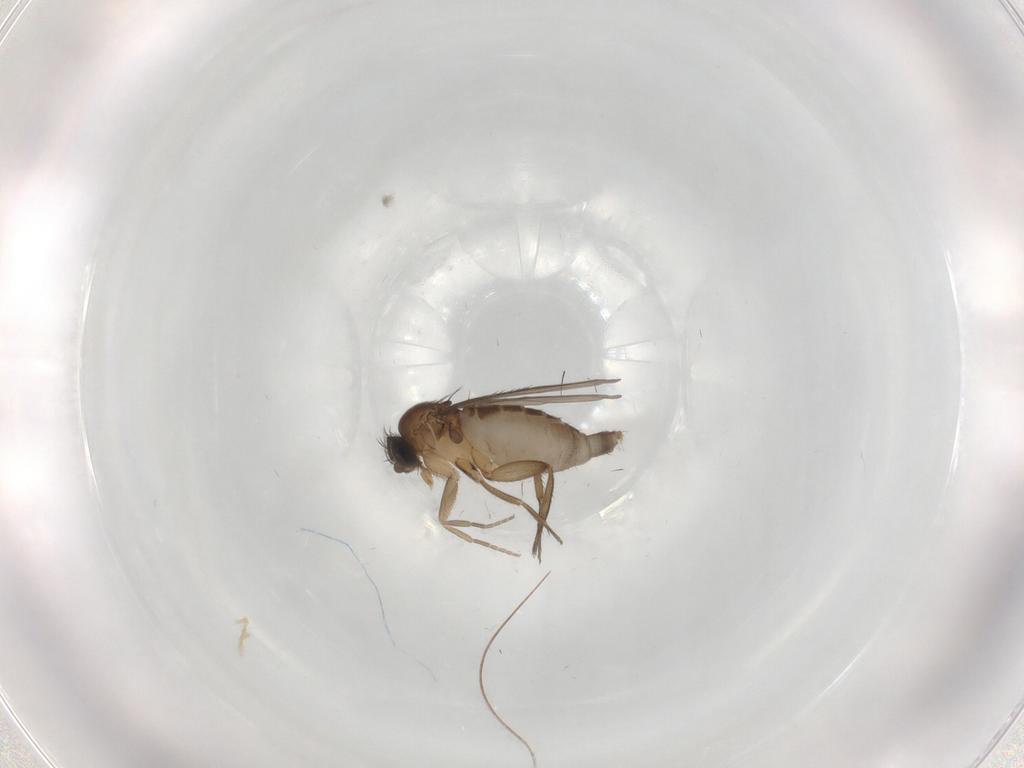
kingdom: Animalia
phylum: Arthropoda
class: Insecta
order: Diptera
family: Phoridae
